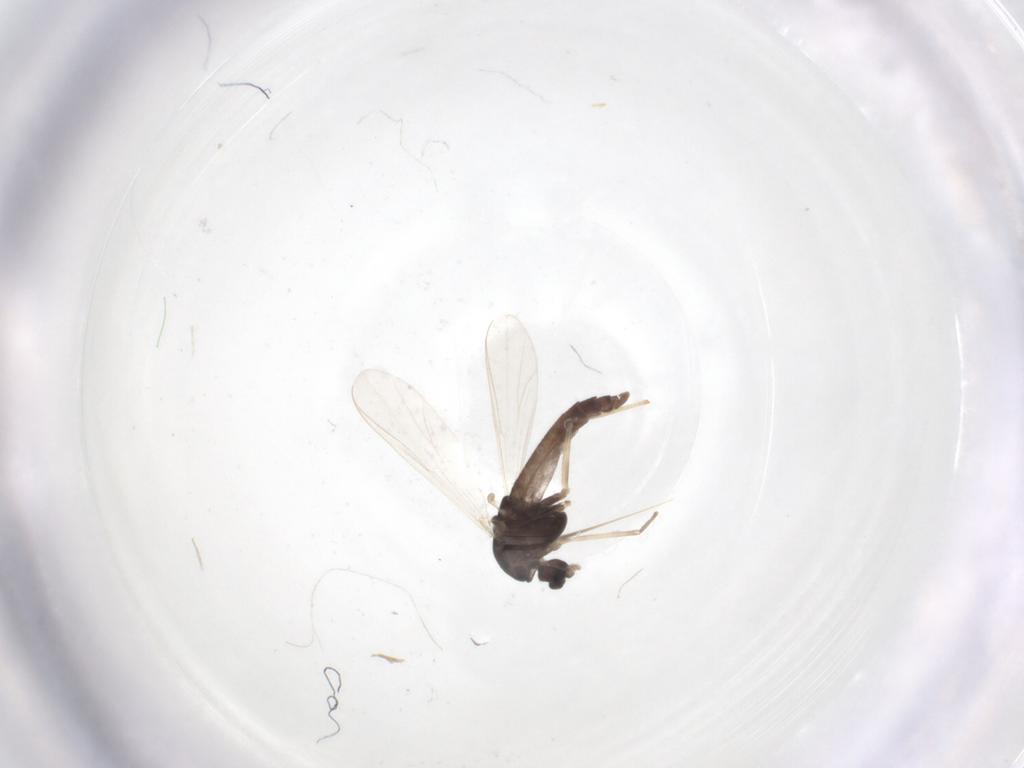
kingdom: Animalia
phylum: Arthropoda
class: Insecta
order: Diptera
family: Chironomidae
